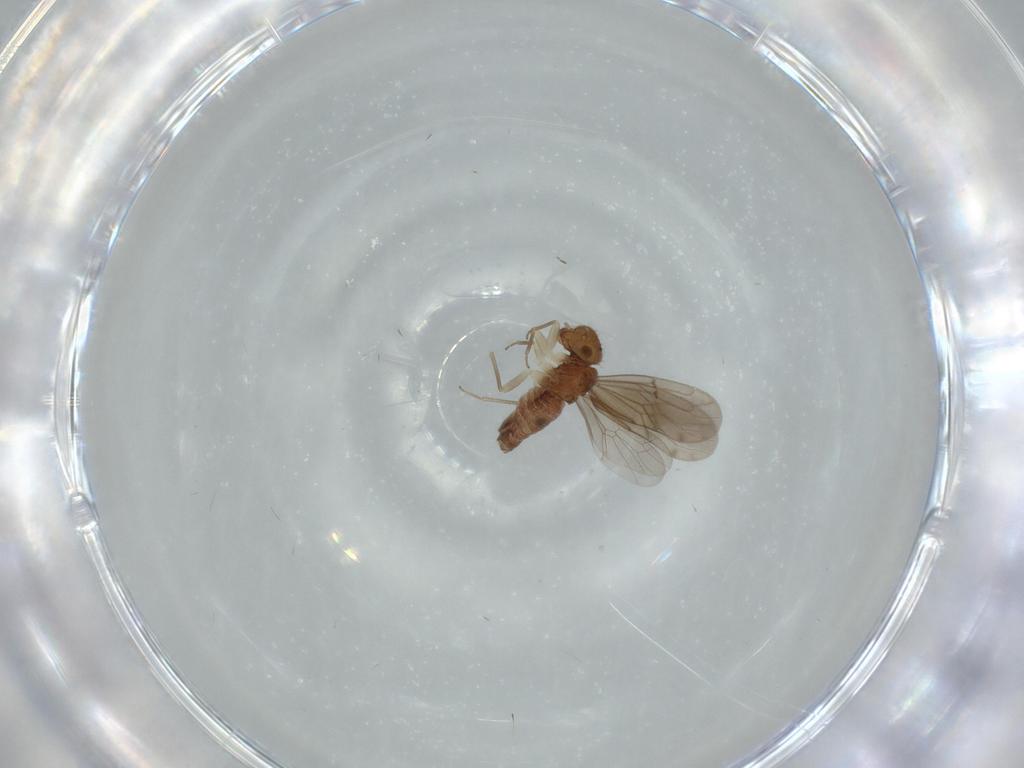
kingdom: Animalia
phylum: Arthropoda
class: Insecta
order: Psocodea
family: Ectopsocidae
